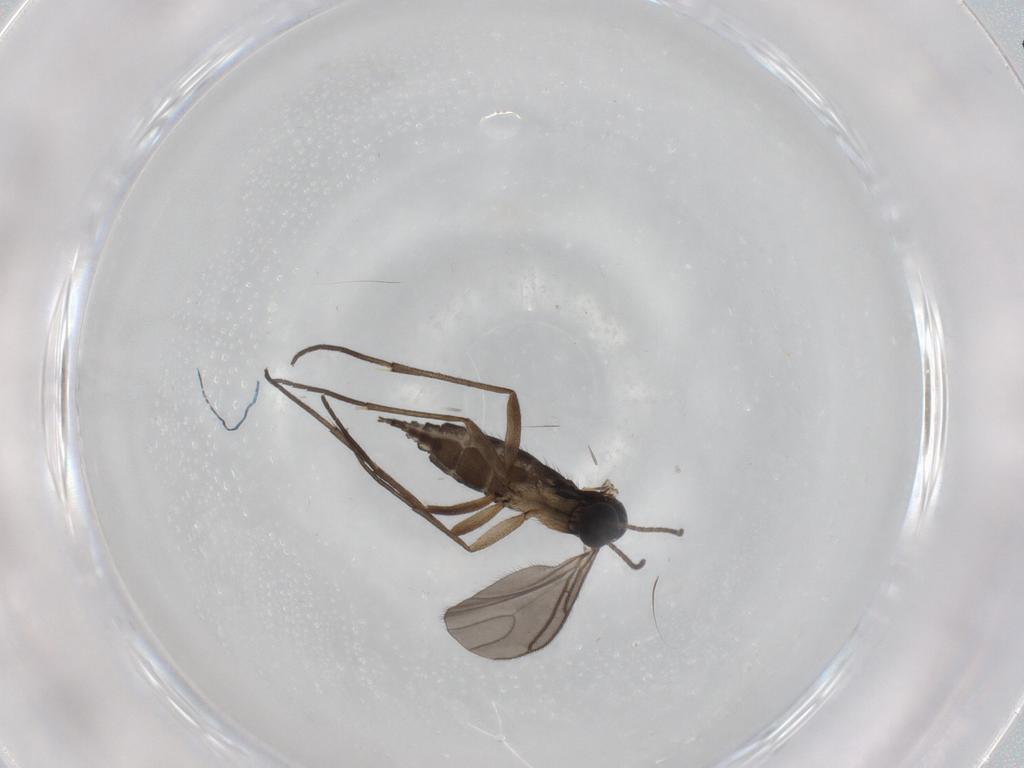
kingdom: Animalia
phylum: Arthropoda
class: Insecta
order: Diptera
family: Sciaridae
